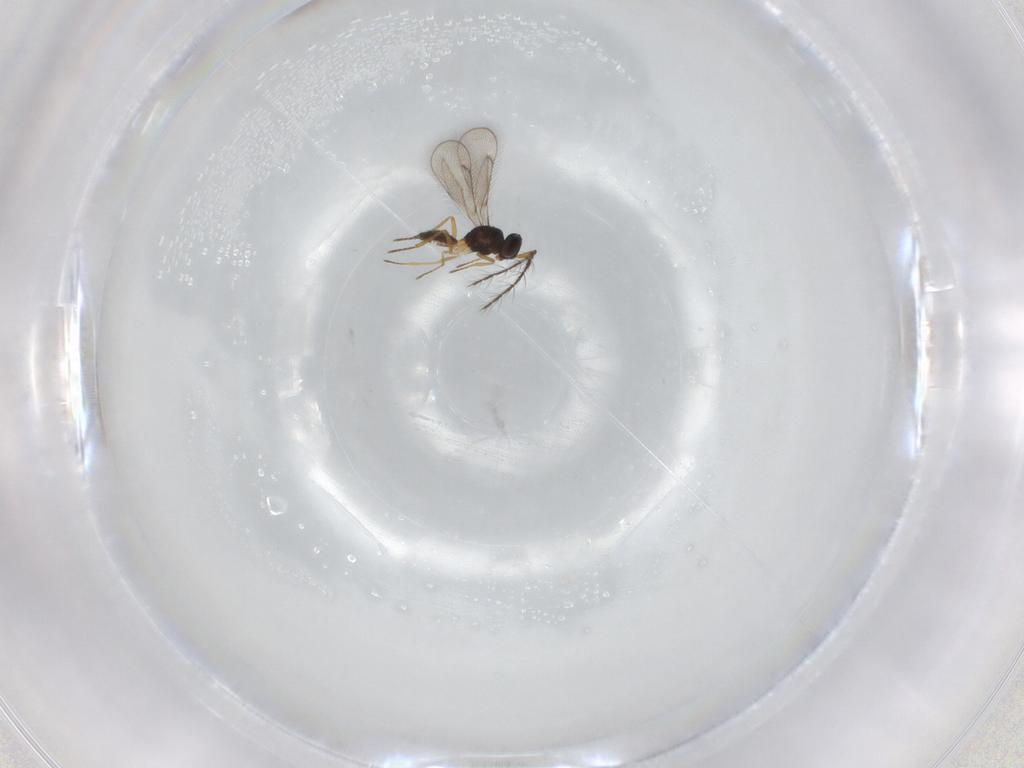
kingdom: Animalia
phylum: Arthropoda
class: Insecta
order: Hymenoptera
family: Eulophidae
